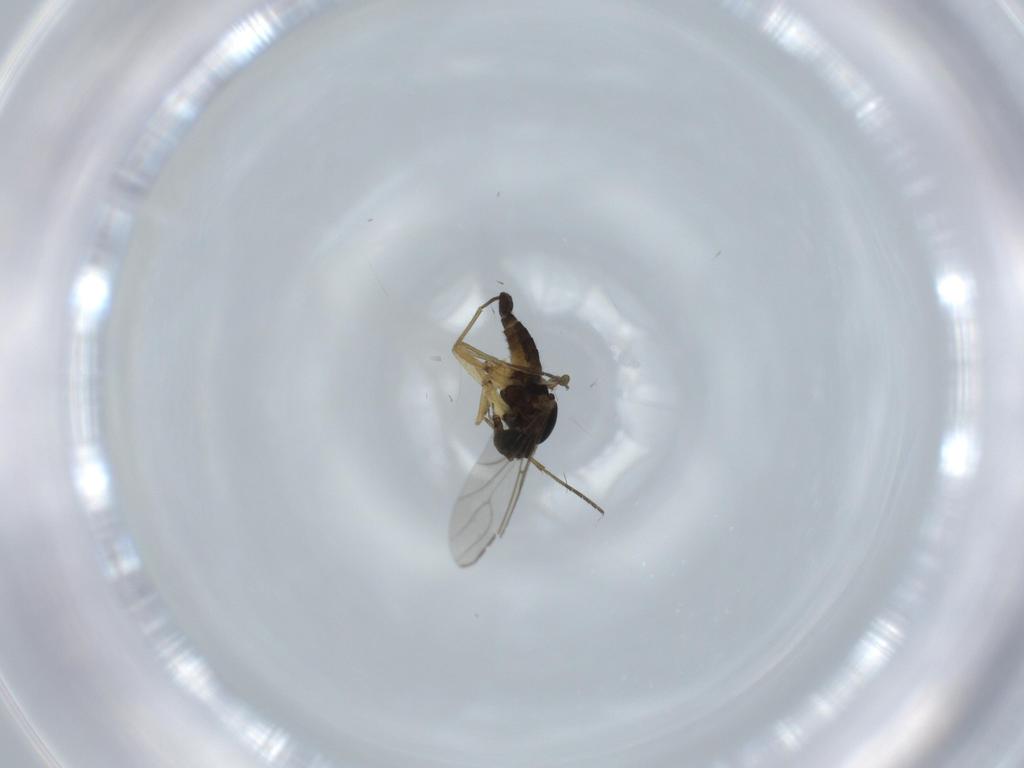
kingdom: Animalia
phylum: Arthropoda
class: Insecta
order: Diptera
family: Sciaridae
